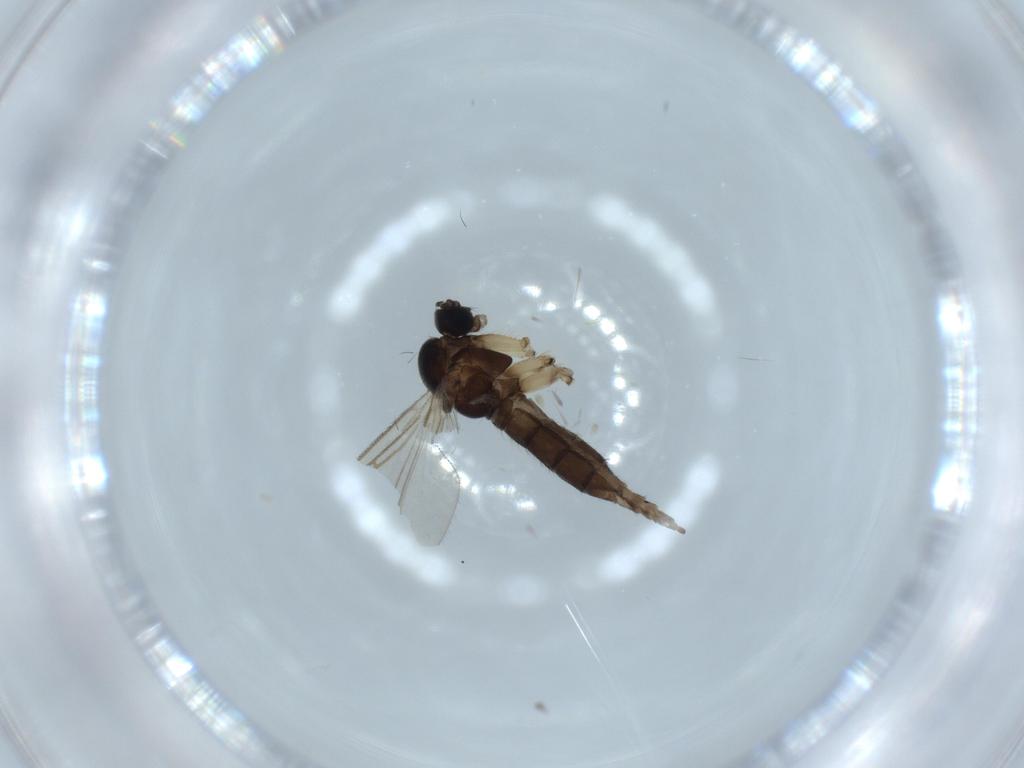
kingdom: Animalia
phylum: Arthropoda
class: Insecta
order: Diptera
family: Sciaridae
